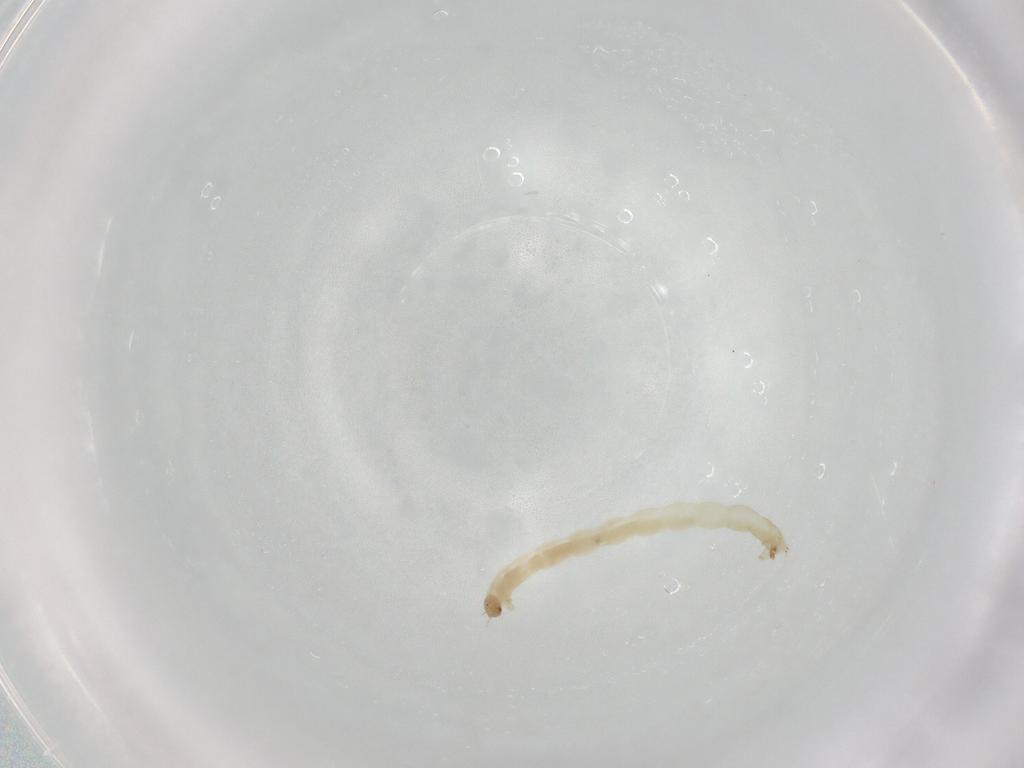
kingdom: Animalia
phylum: Arthropoda
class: Insecta
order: Diptera
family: Chironomidae
